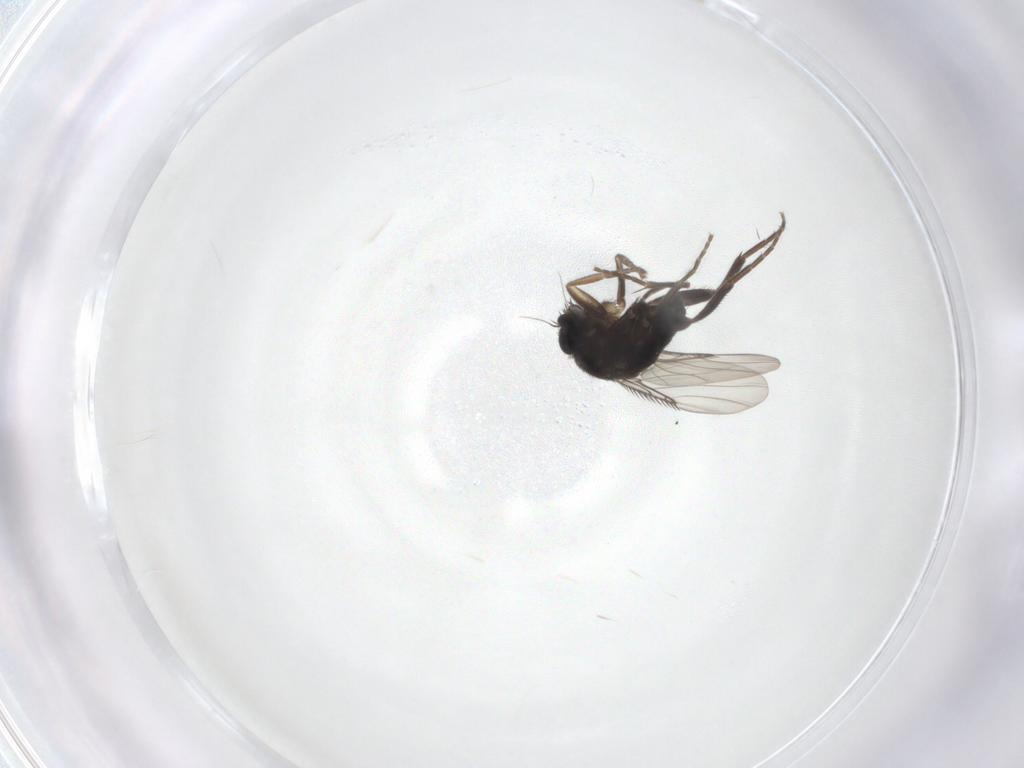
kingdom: Animalia
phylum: Arthropoda
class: Insecta
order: Diptera
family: Phoridae
